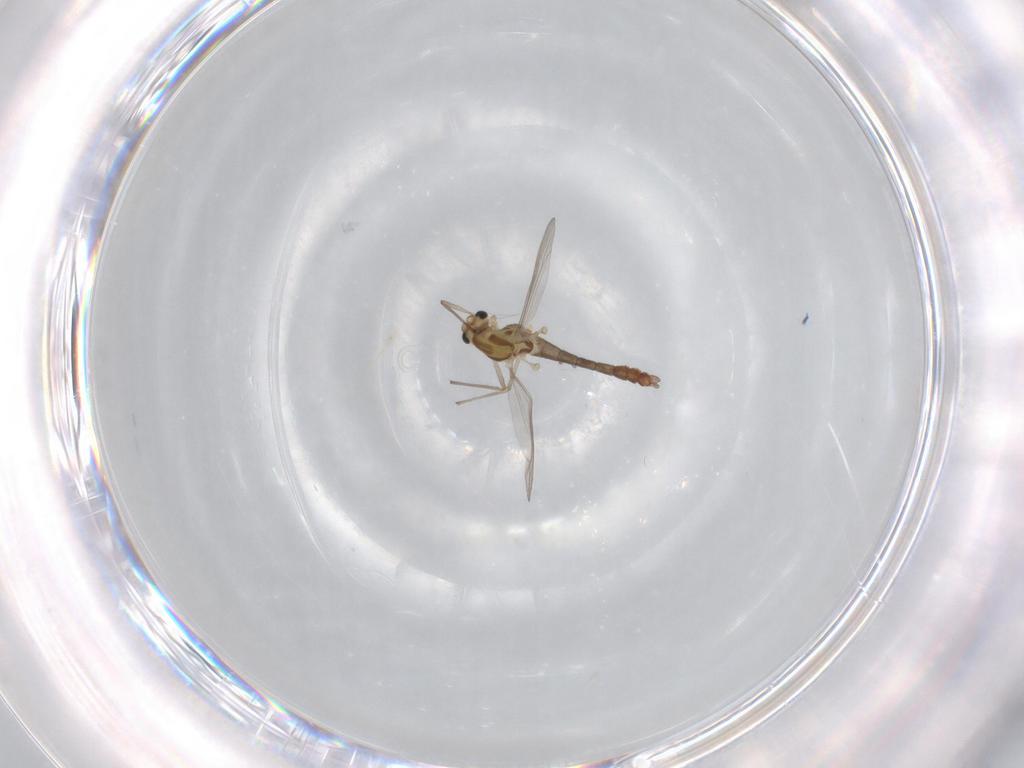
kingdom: Animalia
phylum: Arthropoda
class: Insecta
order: Diptera
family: Chironomidae
